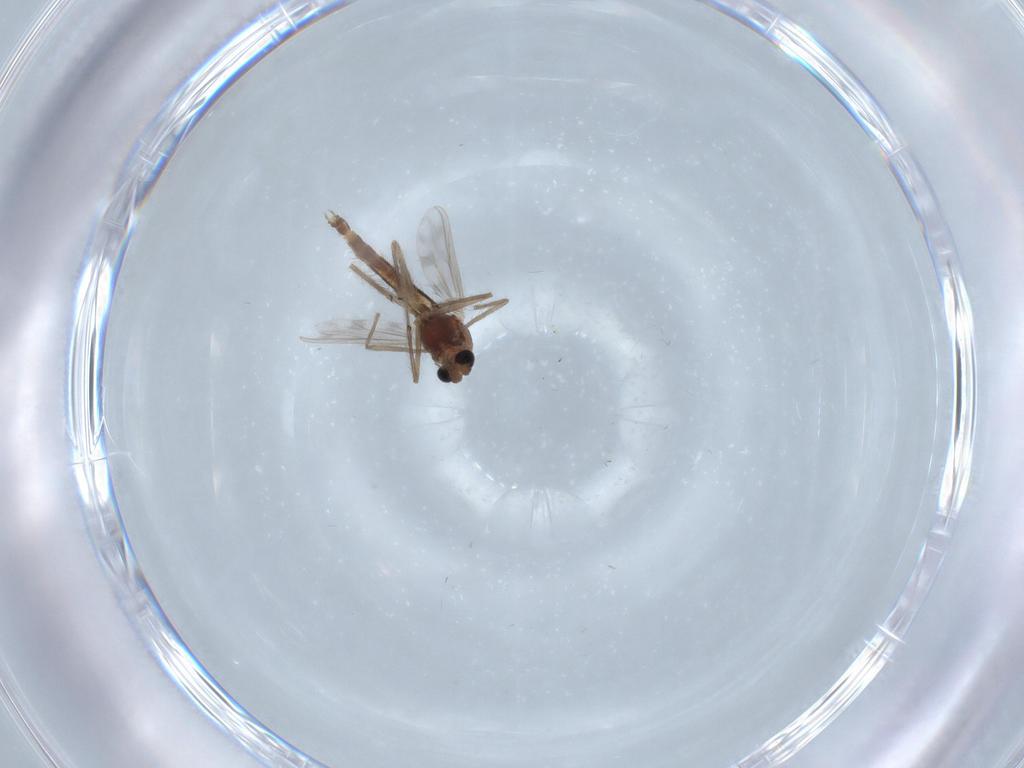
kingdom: Animalia
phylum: Arthropoda
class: Insecta
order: Diptera
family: Chironomidae
